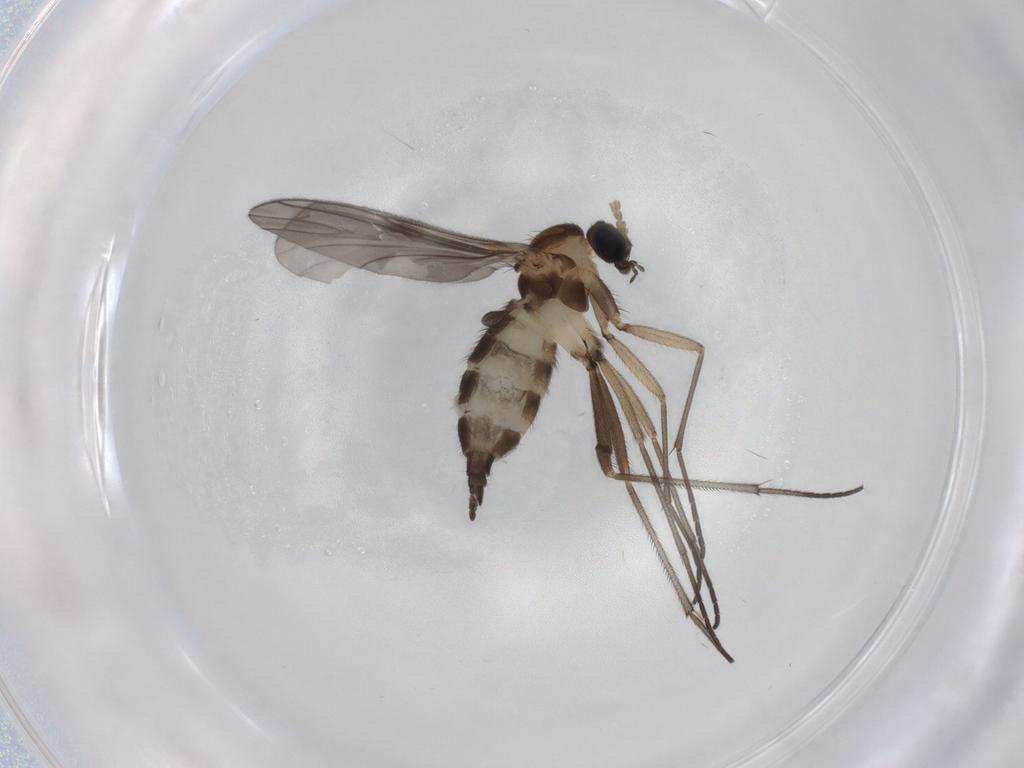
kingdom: Animalia
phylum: Arthropoda
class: Insecta
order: Diptera
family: Sciaridae
